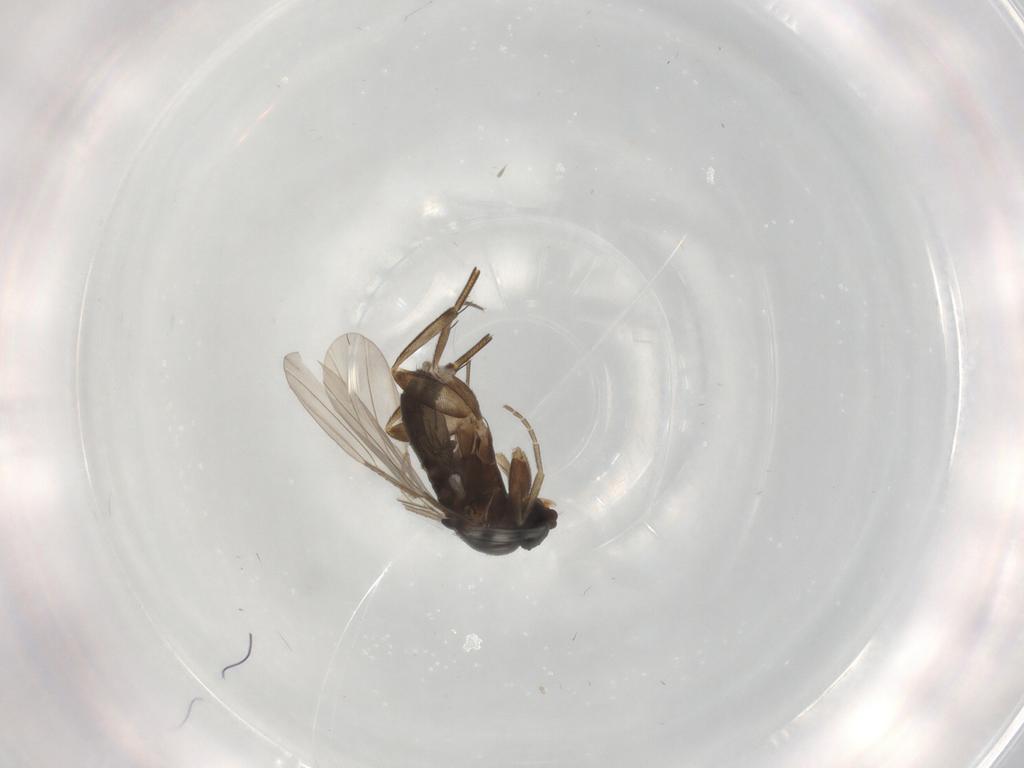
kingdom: Animalia
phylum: Arthropoda
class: Insecta
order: Diptera
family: Phoridae
